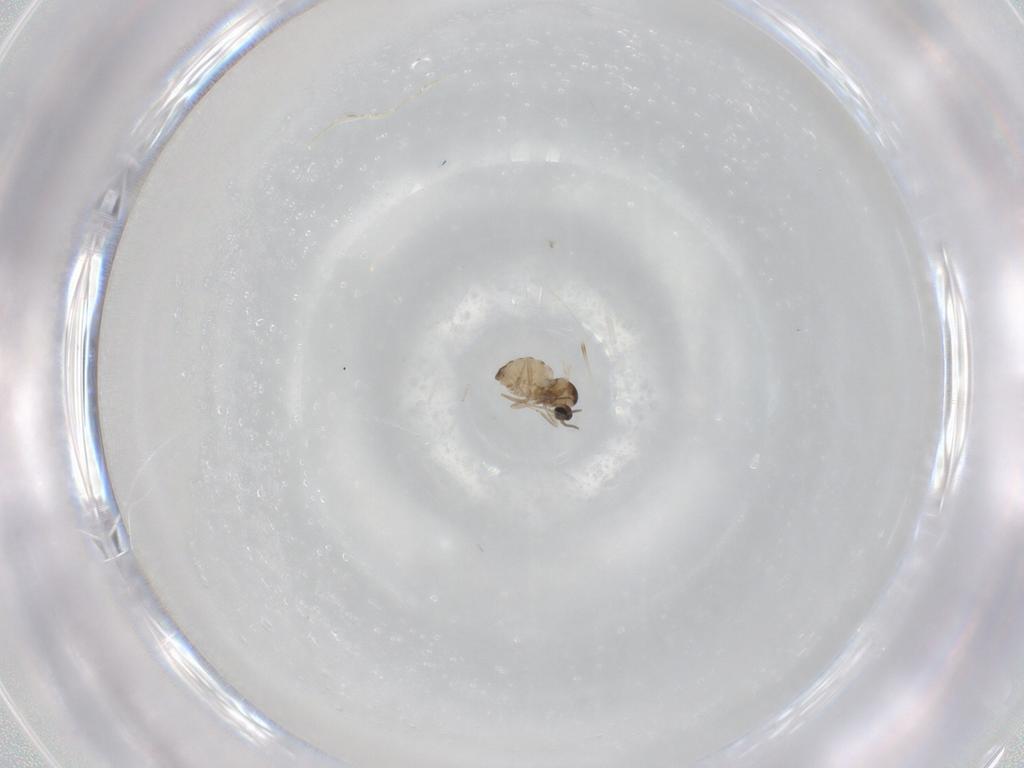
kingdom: Animalia
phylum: Arthropoda
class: Insecta
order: Diptera
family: Cecidomyiidae
